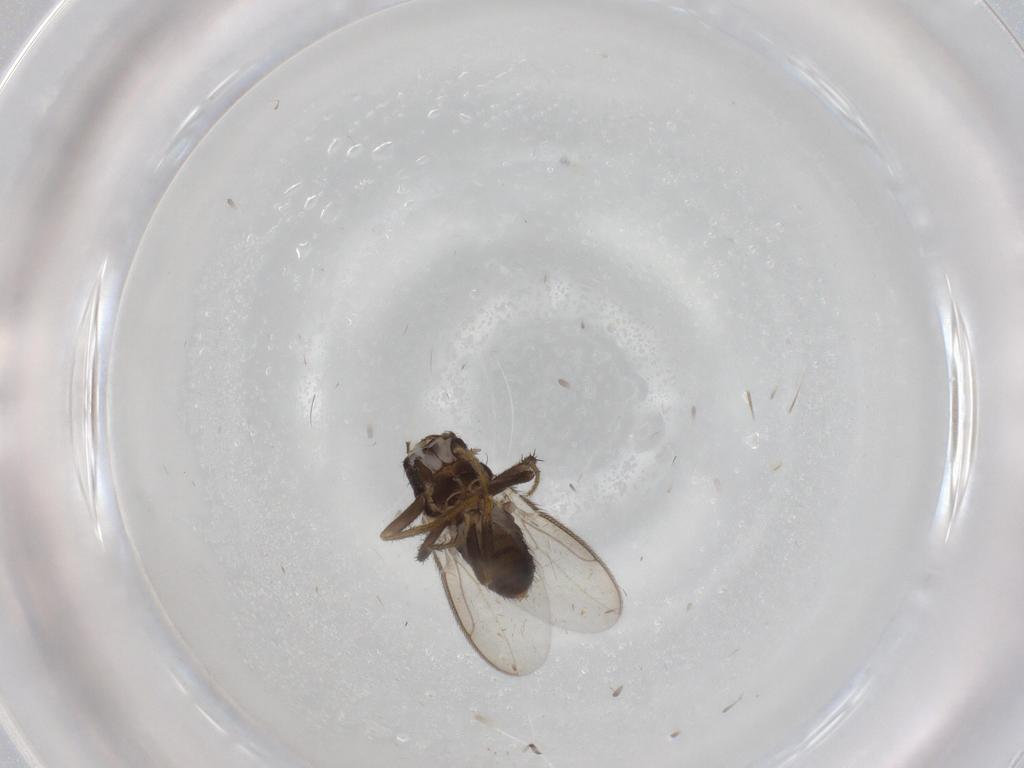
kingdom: Animalia
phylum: Arthropoda
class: Insecta
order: Diptera
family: Sphaeroceridae
